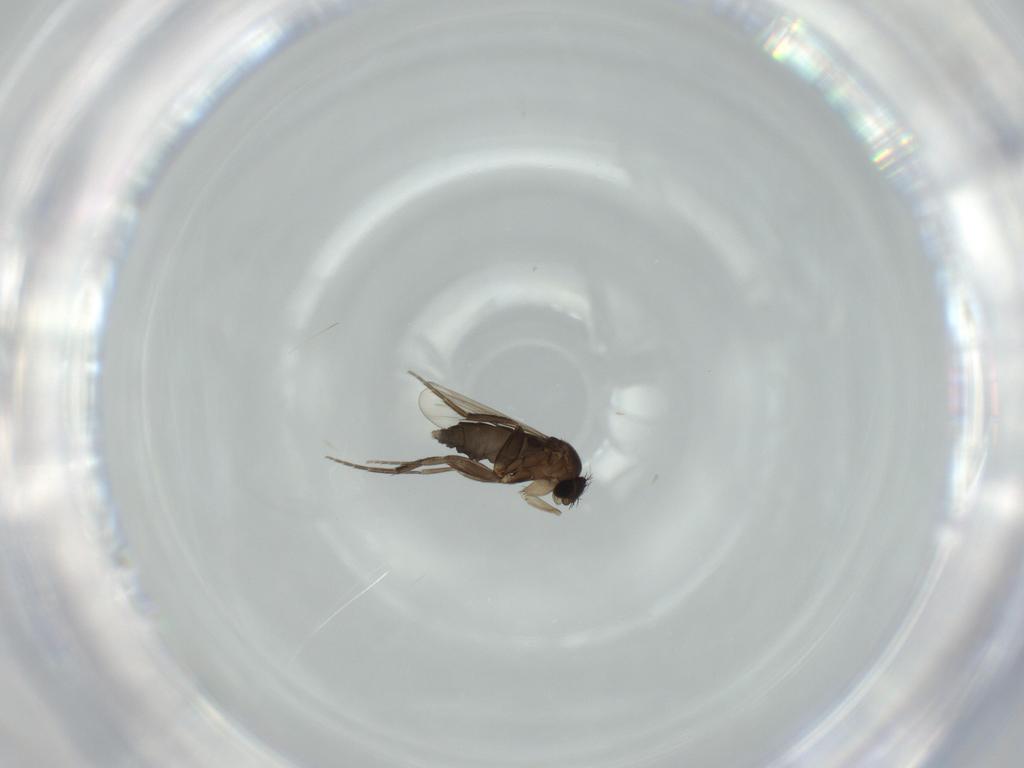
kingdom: Animalia
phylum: Arthropoda
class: Insecta
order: Diptera
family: Phoridae
